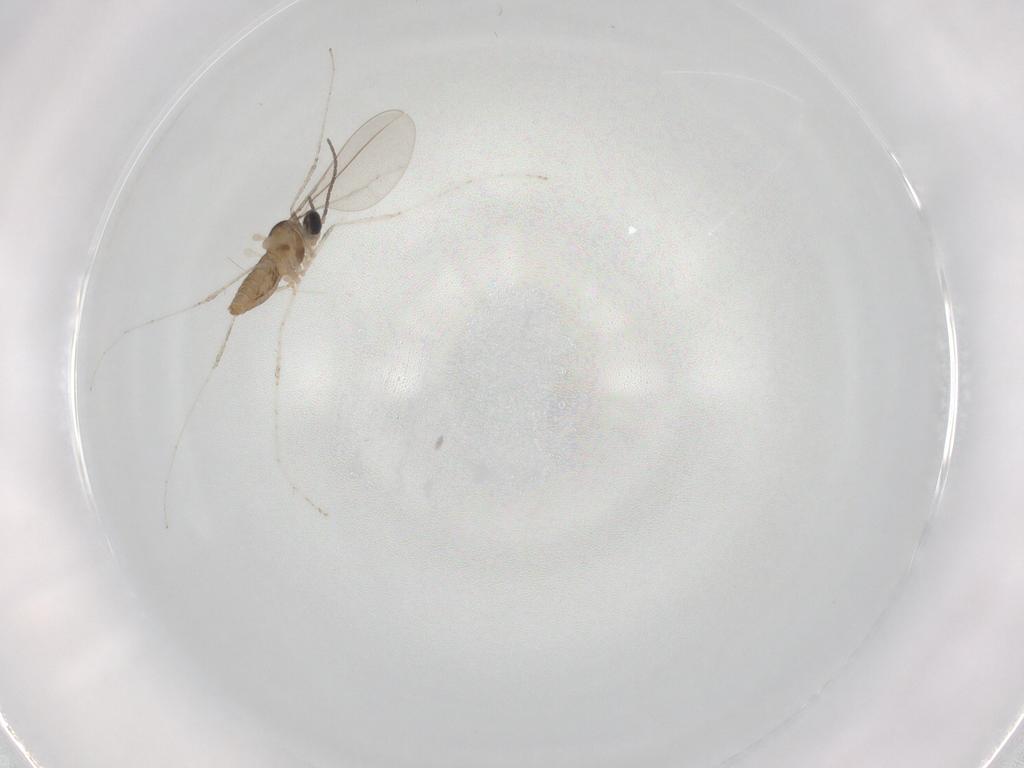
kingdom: Animalia
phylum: Arthropoda
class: Insecta
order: Diptera
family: Cecidomyiidae
